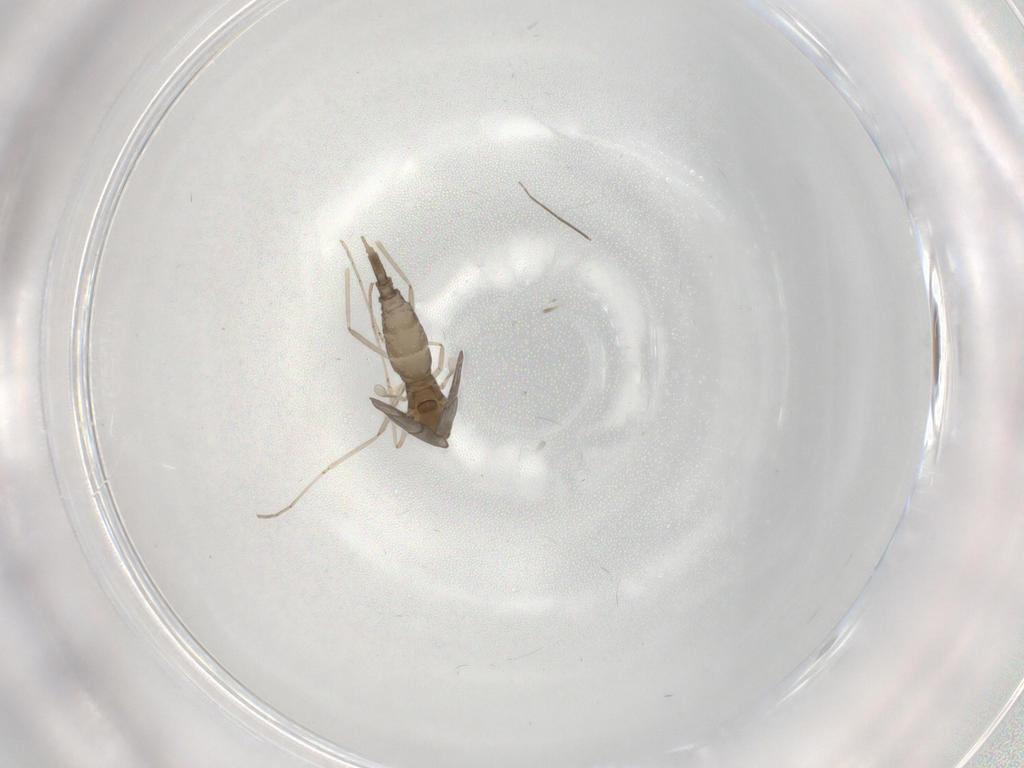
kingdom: Animalia
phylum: Arthropoda
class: Insecta
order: Diptera
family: Cecidomyiidae
